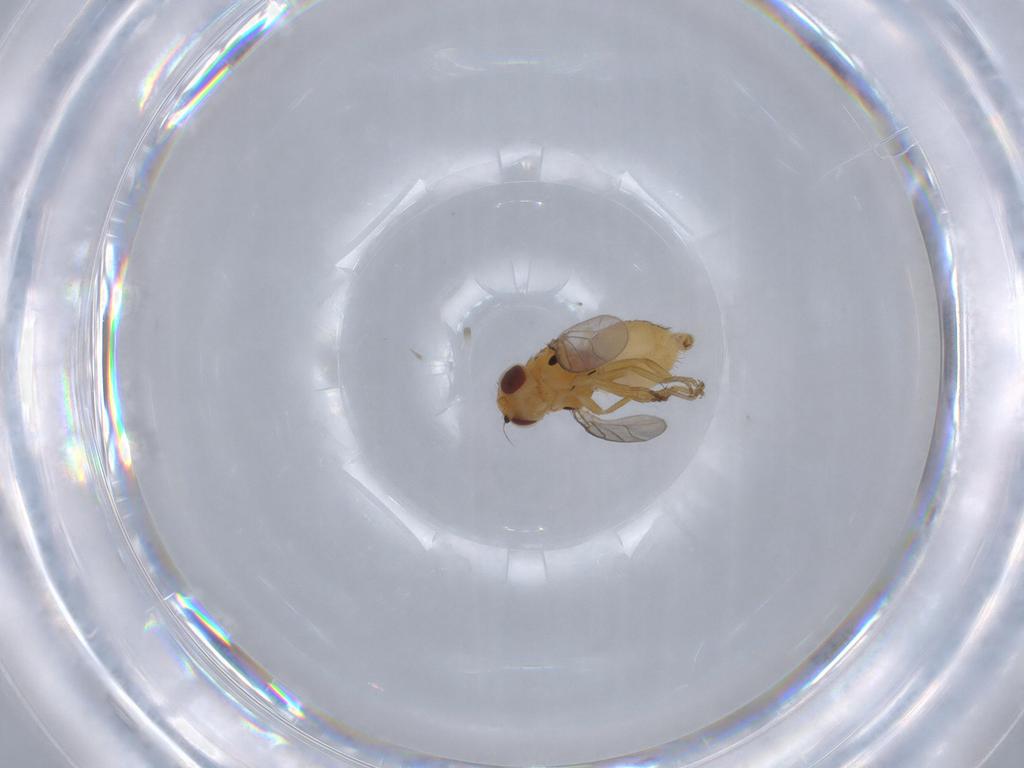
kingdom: Animalia
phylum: Arthropoda
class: Insecta
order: Diptera
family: Chloropidae
